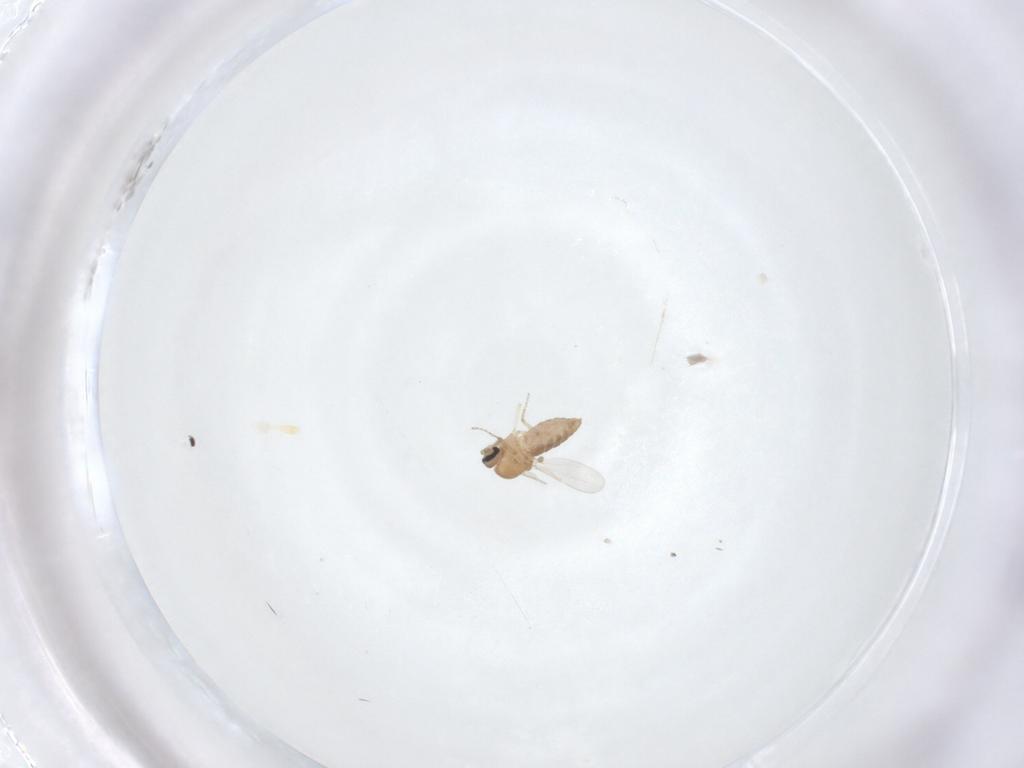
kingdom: Animalia
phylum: Arthropoda
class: Insecta
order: Diptera
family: Ceratopogonidae
